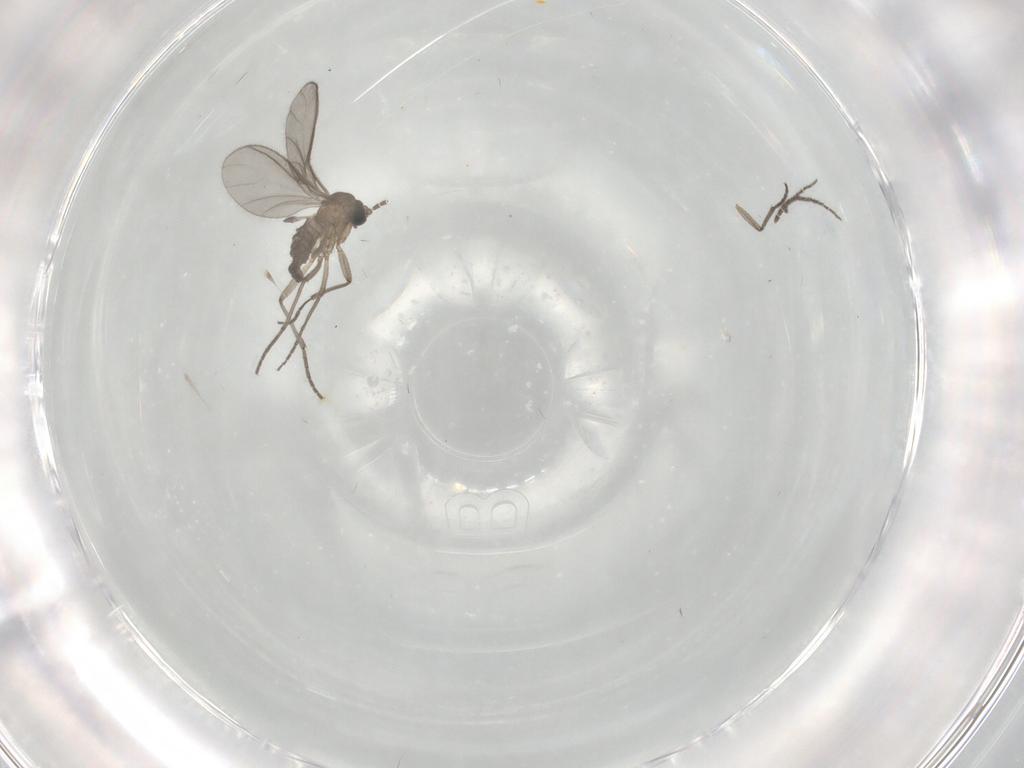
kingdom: Animalia
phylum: Arthropoda
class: Insecta
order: Diptera
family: Sciaridae
